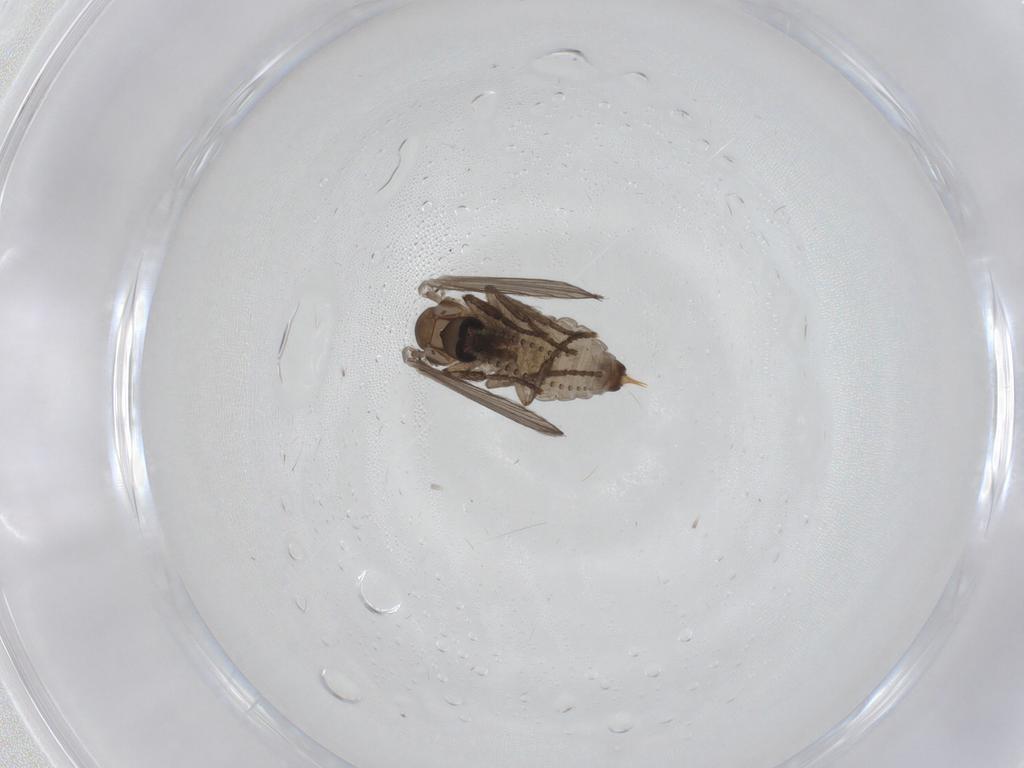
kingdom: Animalia
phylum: Arthropoda
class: Insecta
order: Diptera
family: Psychodidae
